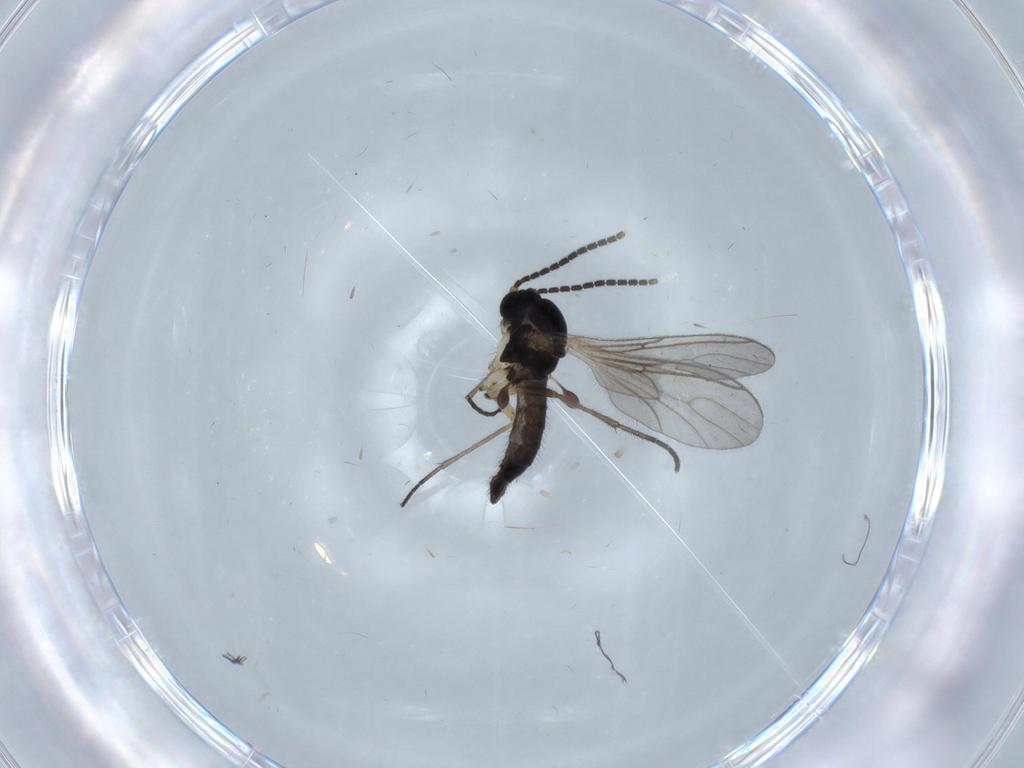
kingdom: Animalia
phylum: Arthropoda
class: Insecta
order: Diptera
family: Sciaridae
